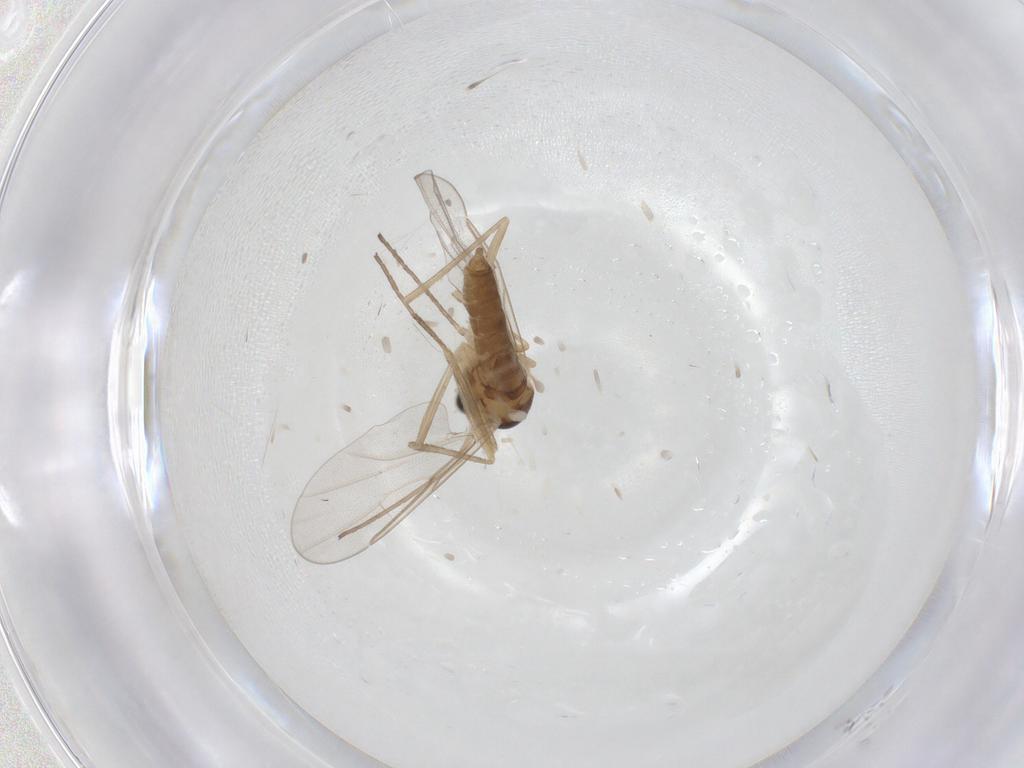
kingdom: Animalia
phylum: Arthropoda
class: Insecta
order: Diptera
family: Cecidomyiidae
